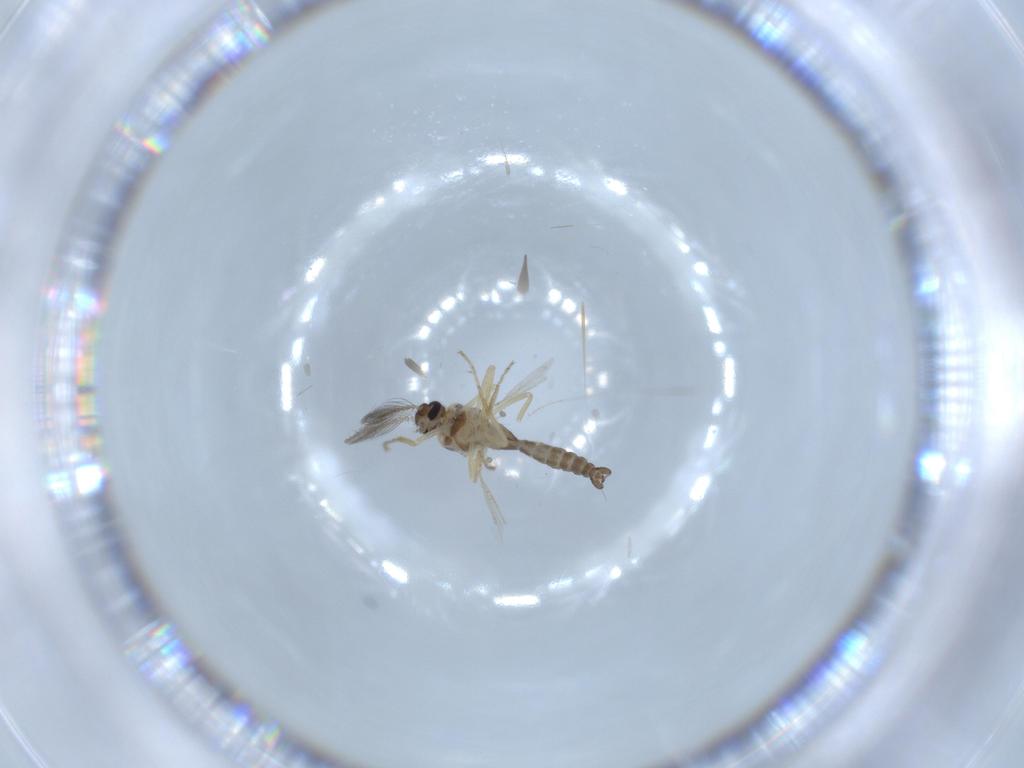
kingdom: Animalia
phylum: Arthropoda
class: Insecta
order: Diptera
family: Ceratopogonidae
